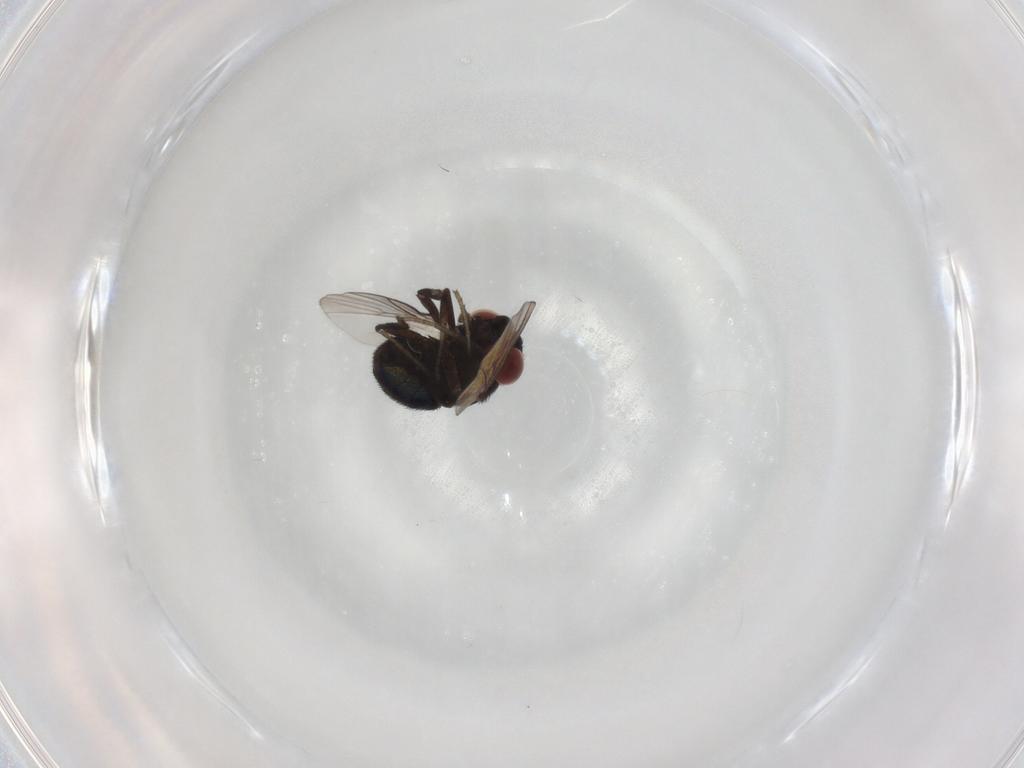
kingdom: Animalia
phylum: Arthropoda
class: Insecta
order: Diptera
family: Cryptochetidae
